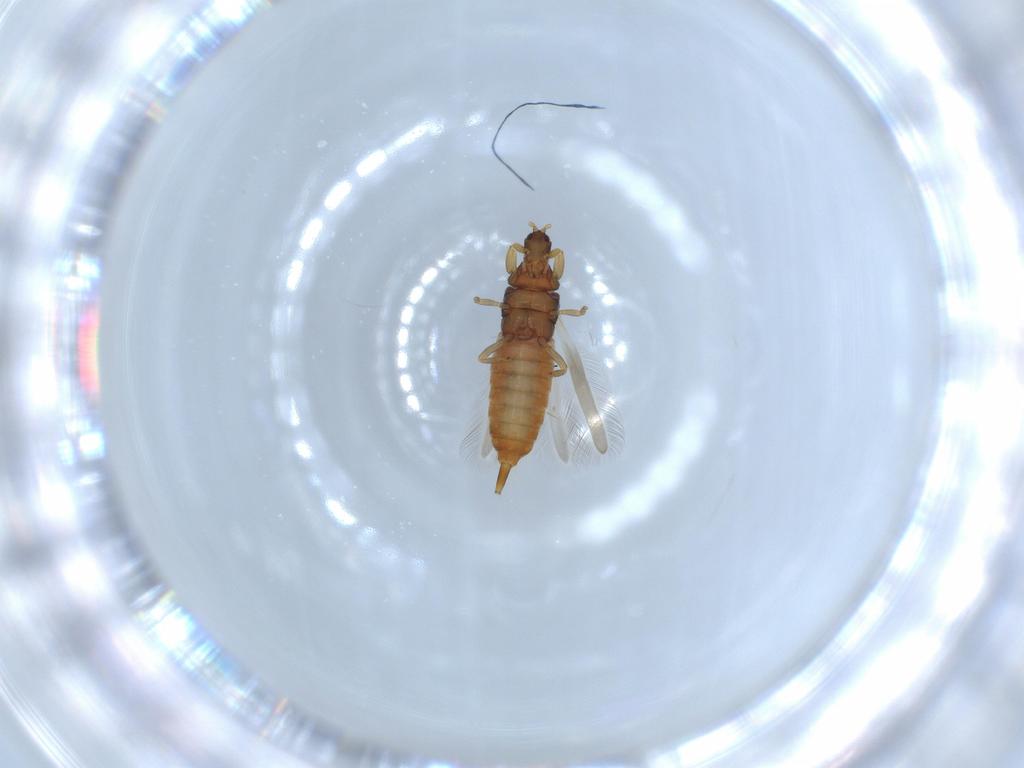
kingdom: Animalia
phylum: Arthropoda
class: Insecta
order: Thysanoptera
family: Phlaeothripidae
